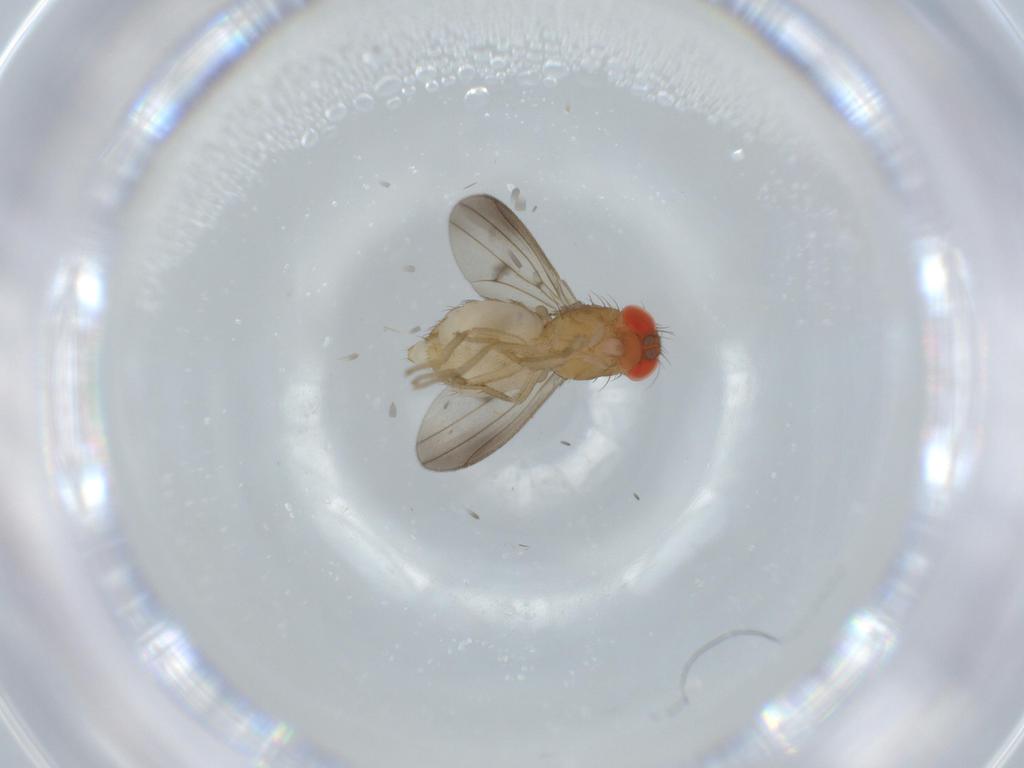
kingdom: Animalia
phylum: Arthropoda
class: Insecta
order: Diptera
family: Drosophilidae
